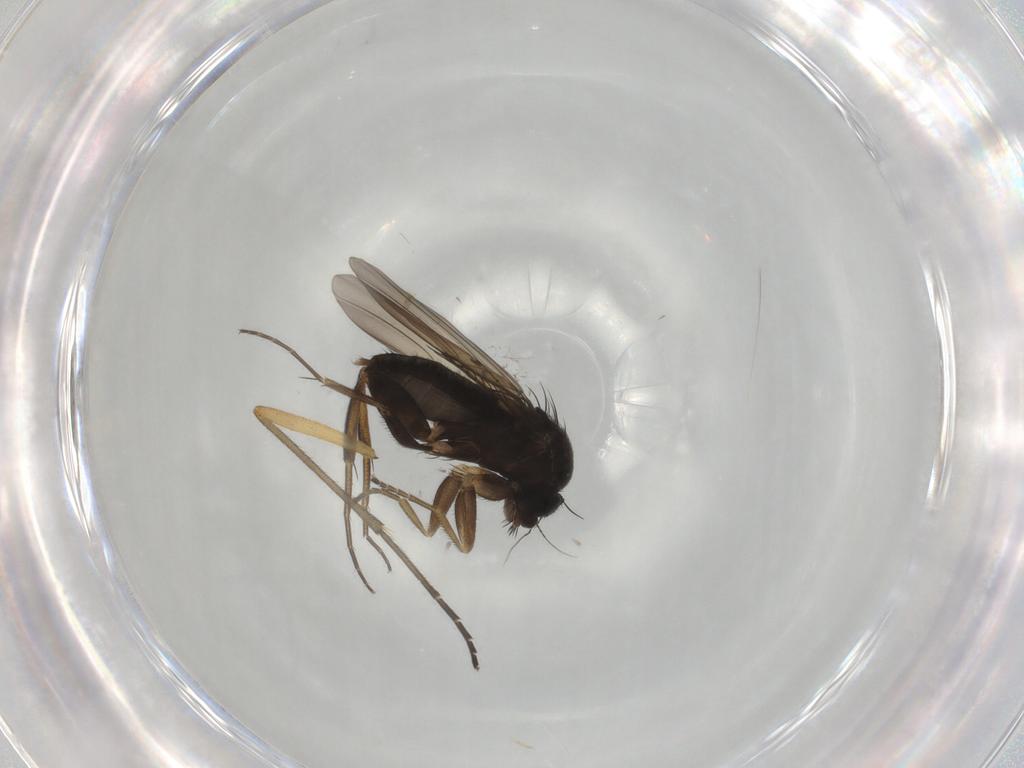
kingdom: Animalia
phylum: Arthropoda
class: Insecta
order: Diptera
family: Phoridae
